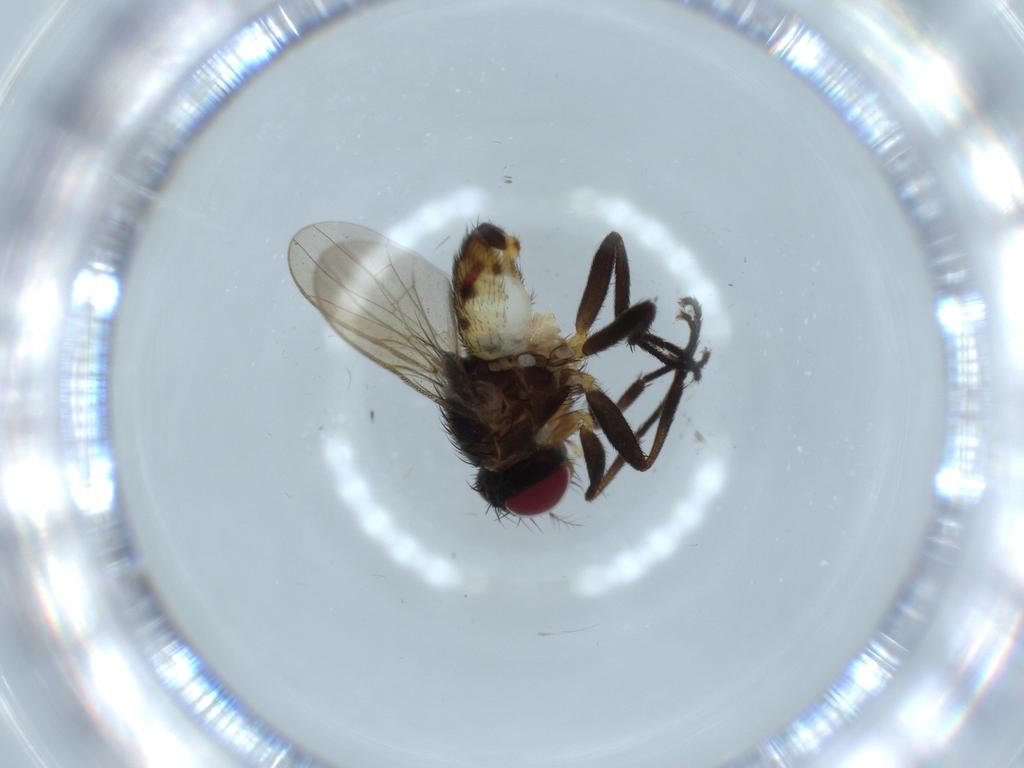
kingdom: Animalia
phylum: Arthropoda
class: Insecta
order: Diptera
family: Anthomyiidae
